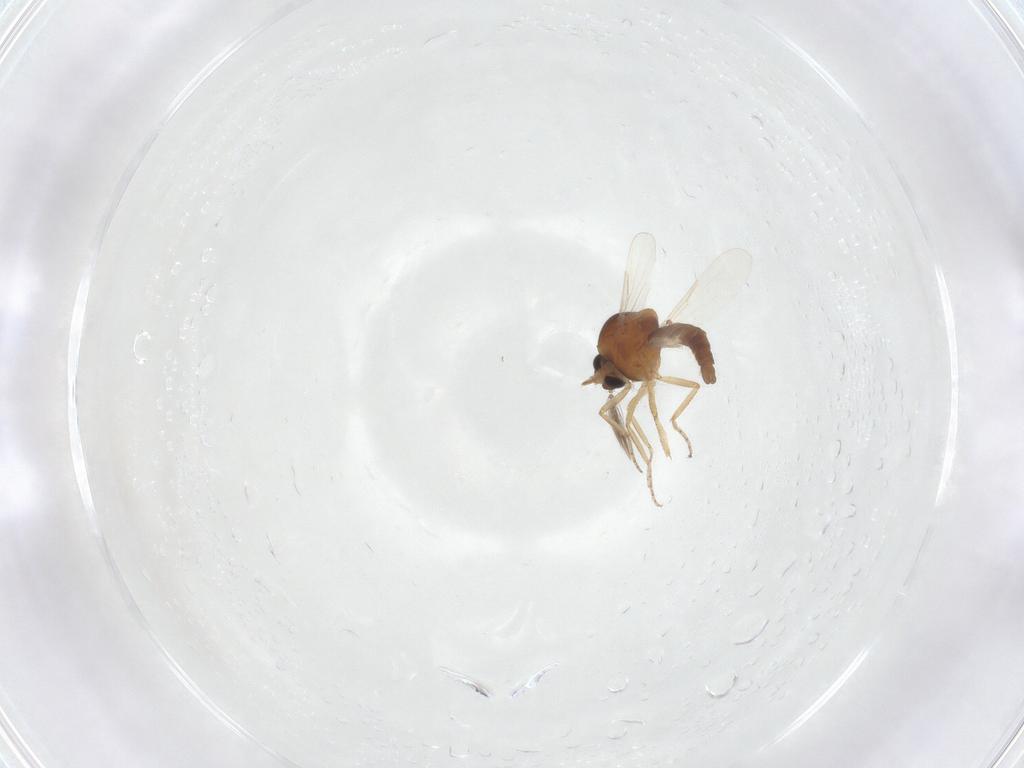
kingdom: Animalia
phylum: Arthropoda
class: Insecta
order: Diptera
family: Ceratopogonidae
